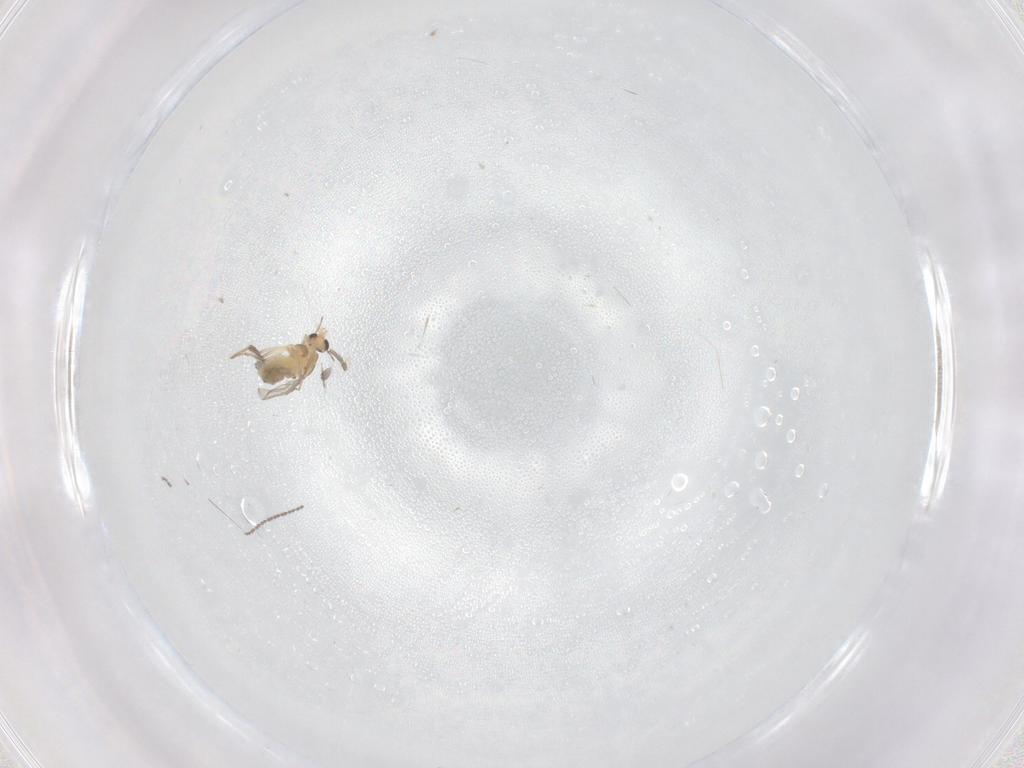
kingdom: Animalia
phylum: Arthropoda
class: Insecta
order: Diptera
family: Chironomidae
